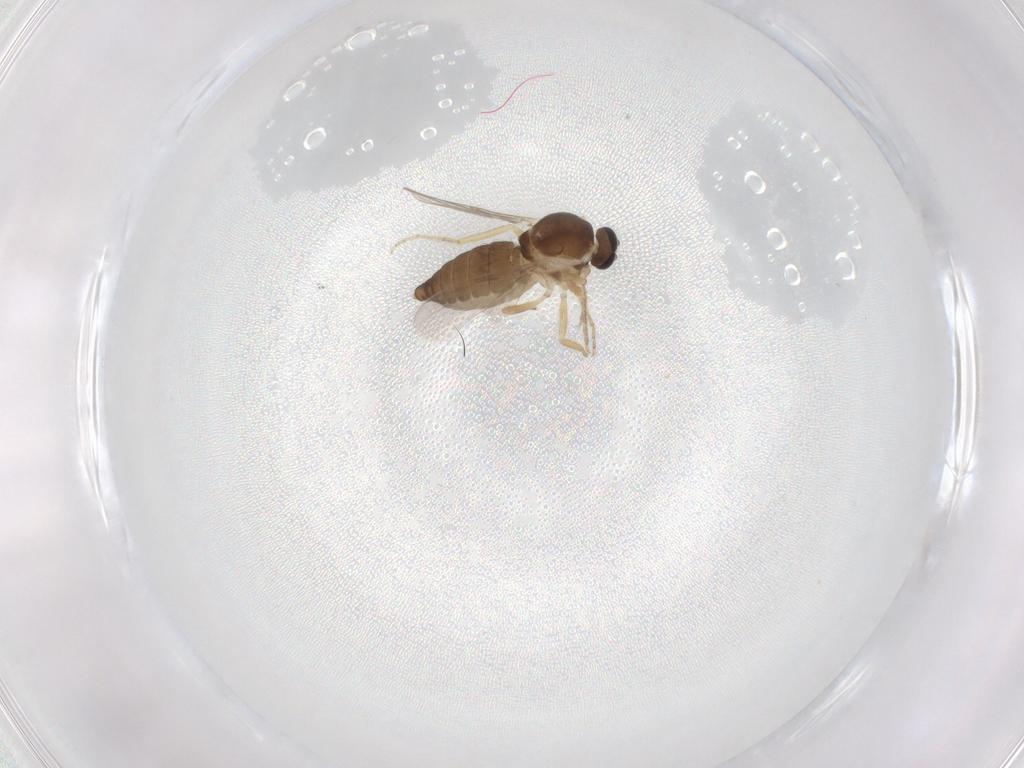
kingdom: Animalia
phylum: Arthropoda
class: Insecta
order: Diptera
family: Ceratopogonidae
